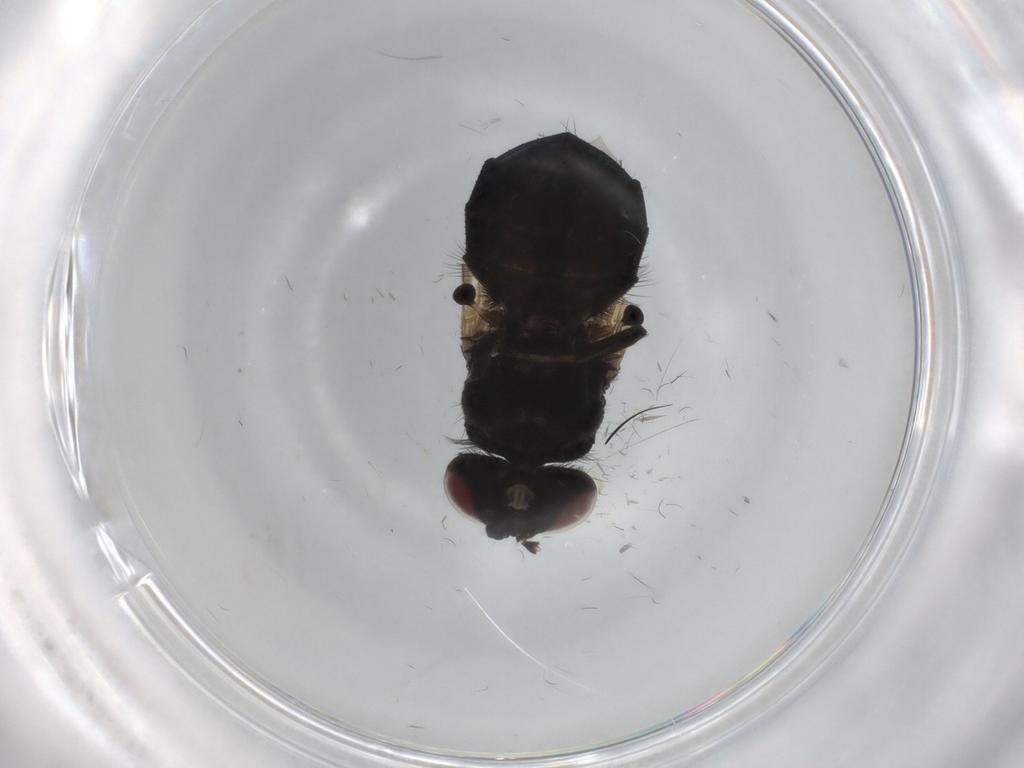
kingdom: Animalia
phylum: Arthropoda
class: Insecta
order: Diptera
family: Lonchaeidae
